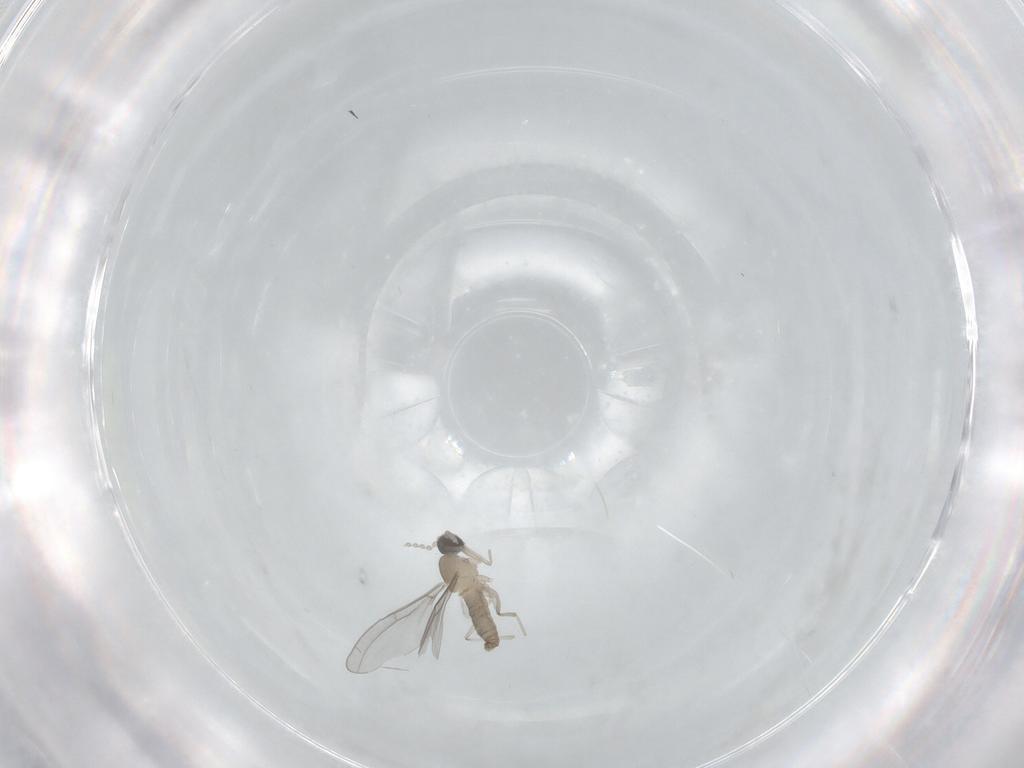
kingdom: Animalia
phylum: Arthropoda
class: Insecta
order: Diptera
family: Cecidomyiidae
